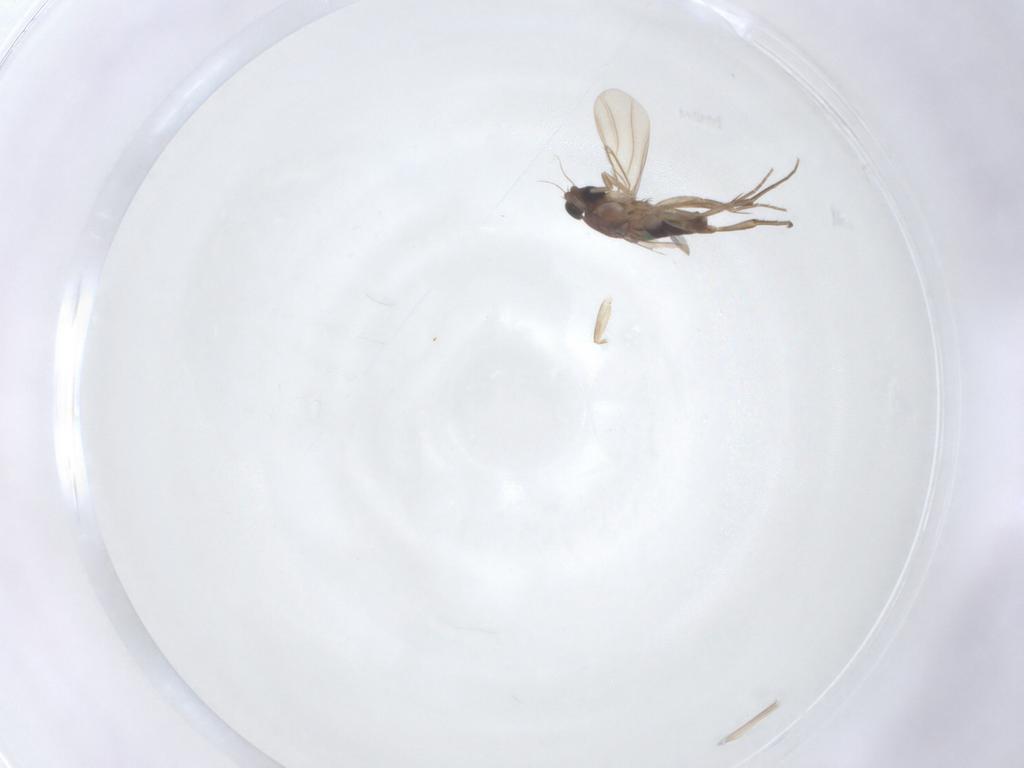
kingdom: Animalia
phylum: Arthropoda
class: Insecta
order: Diptera
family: Phoridae
